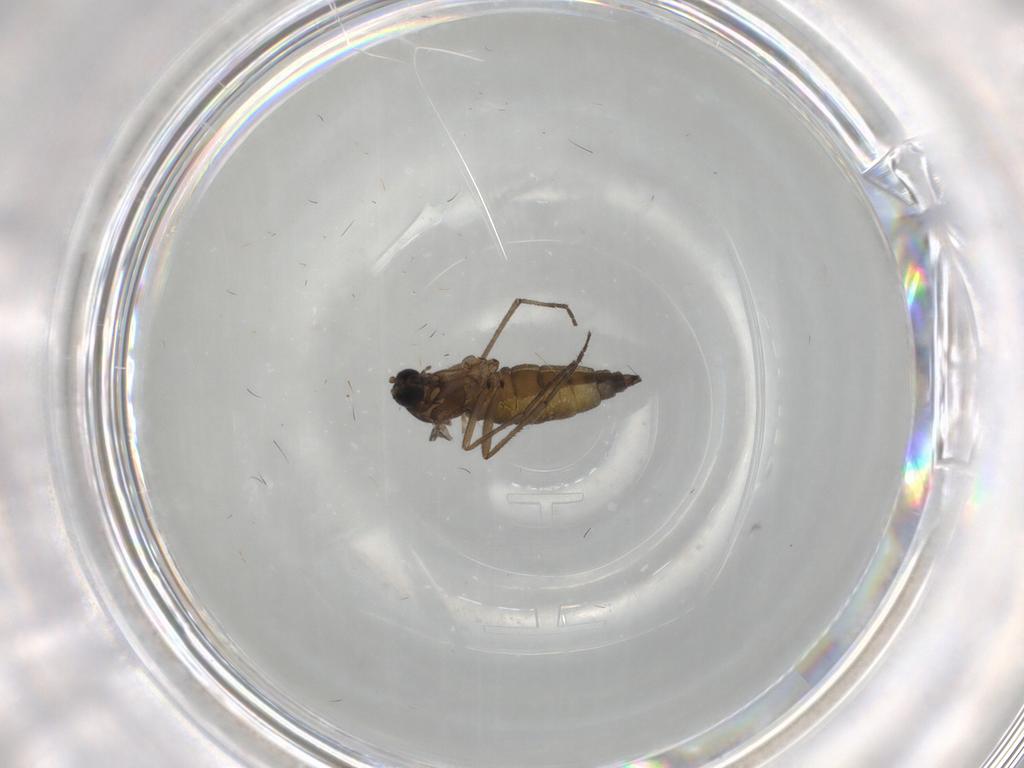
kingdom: Animalia
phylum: Arthropoda
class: Insecta
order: Diptera
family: Sciaridae
